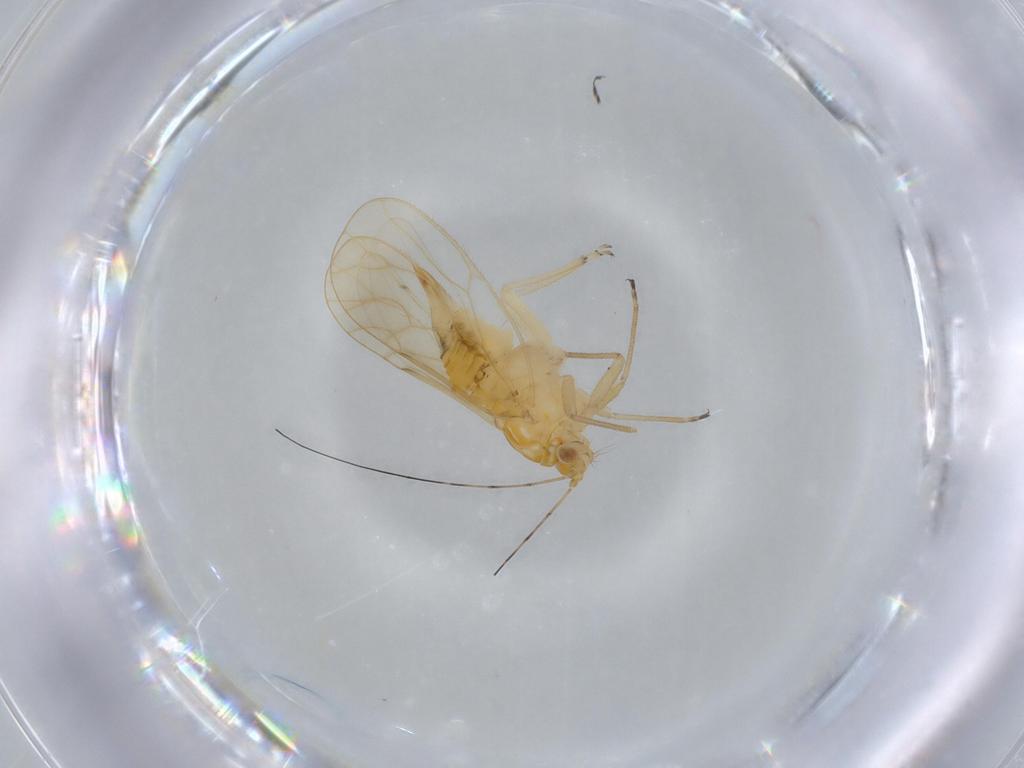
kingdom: Animalia
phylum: Arthropoda
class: Insecta
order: Hemiptera
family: Psyllidae
